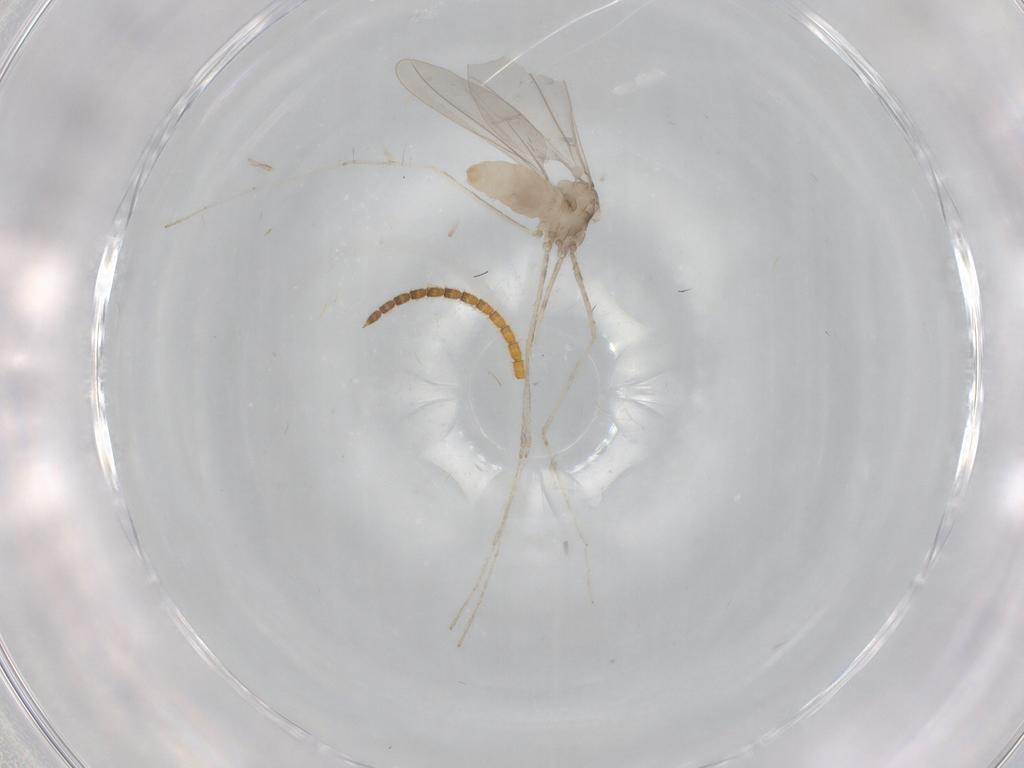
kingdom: Animalia
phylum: Arthropoda
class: Insecta
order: Diptera
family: Cecidomyiidae
